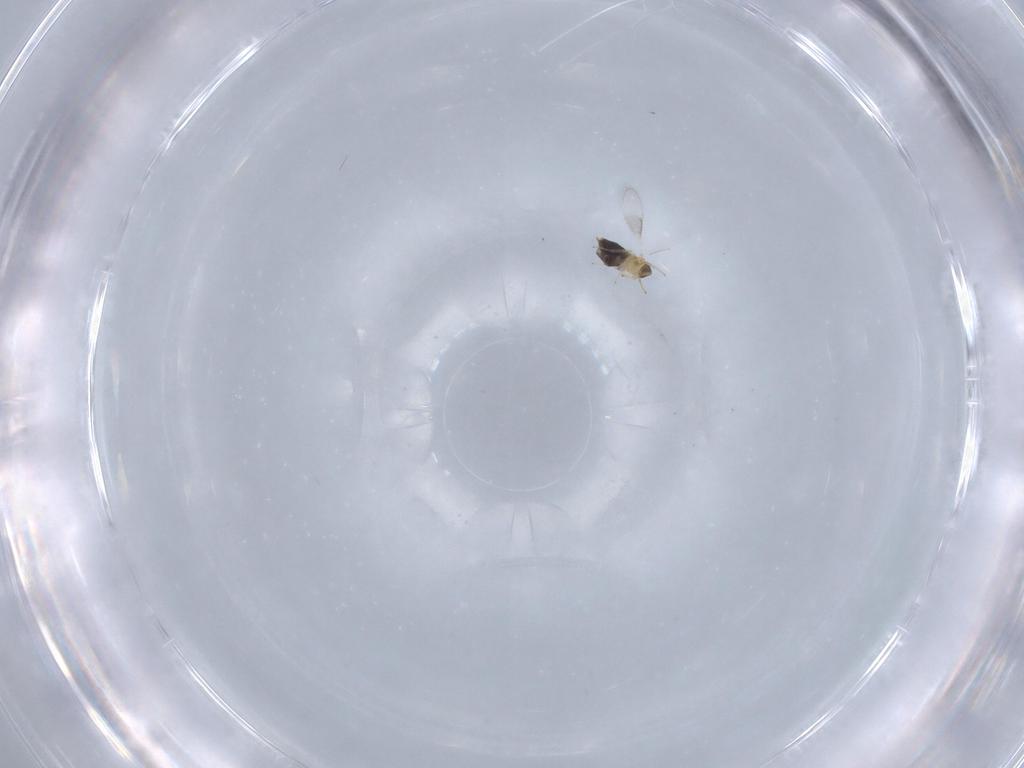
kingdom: Animalia
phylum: Arthropoda
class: Insecta
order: Hymenoptera
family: Aphelinidae
